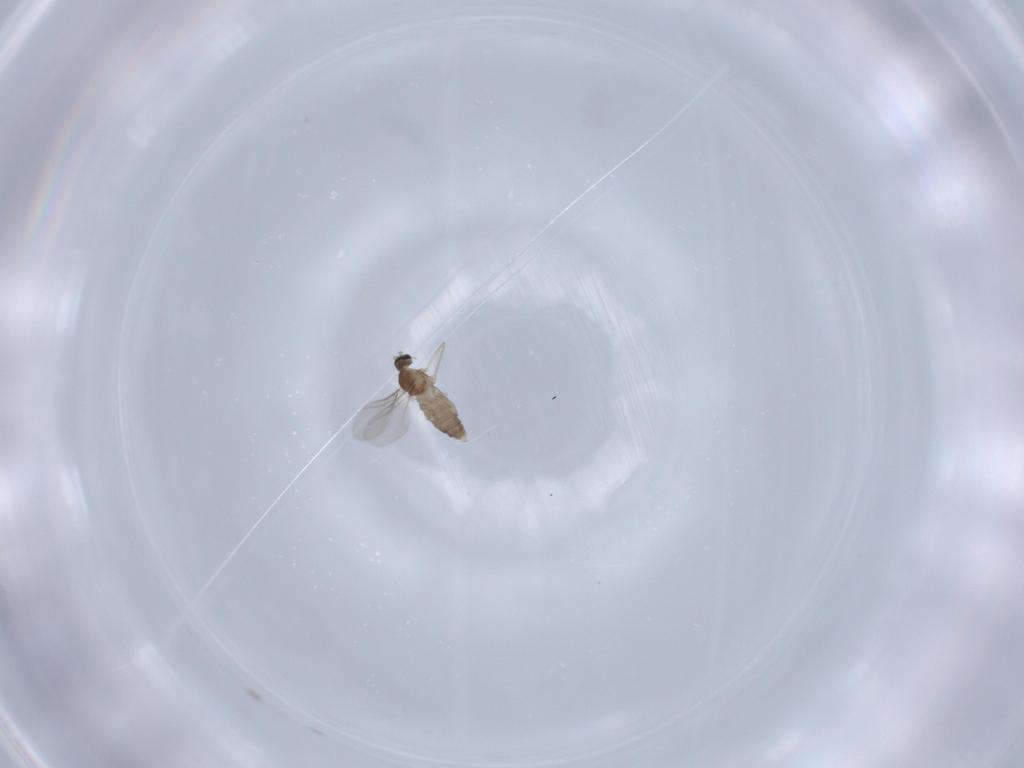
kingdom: Animalia
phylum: Arthropoda
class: Insecta
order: Diptera
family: Cecidomyiidae
